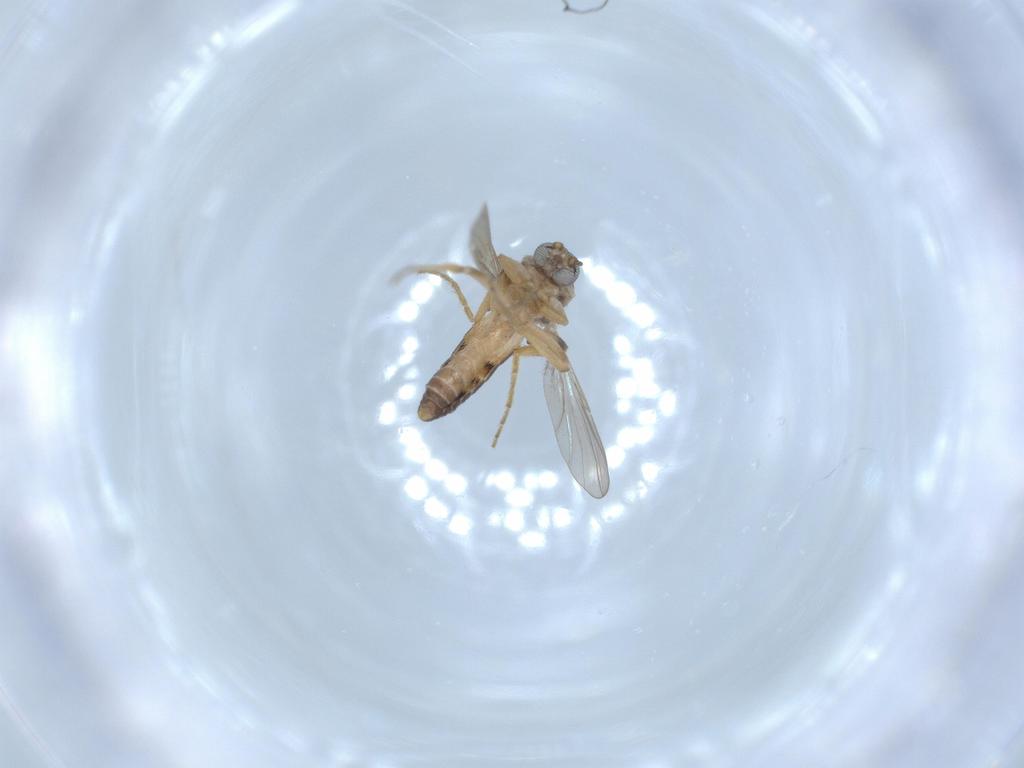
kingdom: Animalia
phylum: Arthropoda
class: Insecta
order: Diptera
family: Ceratopogonidae
